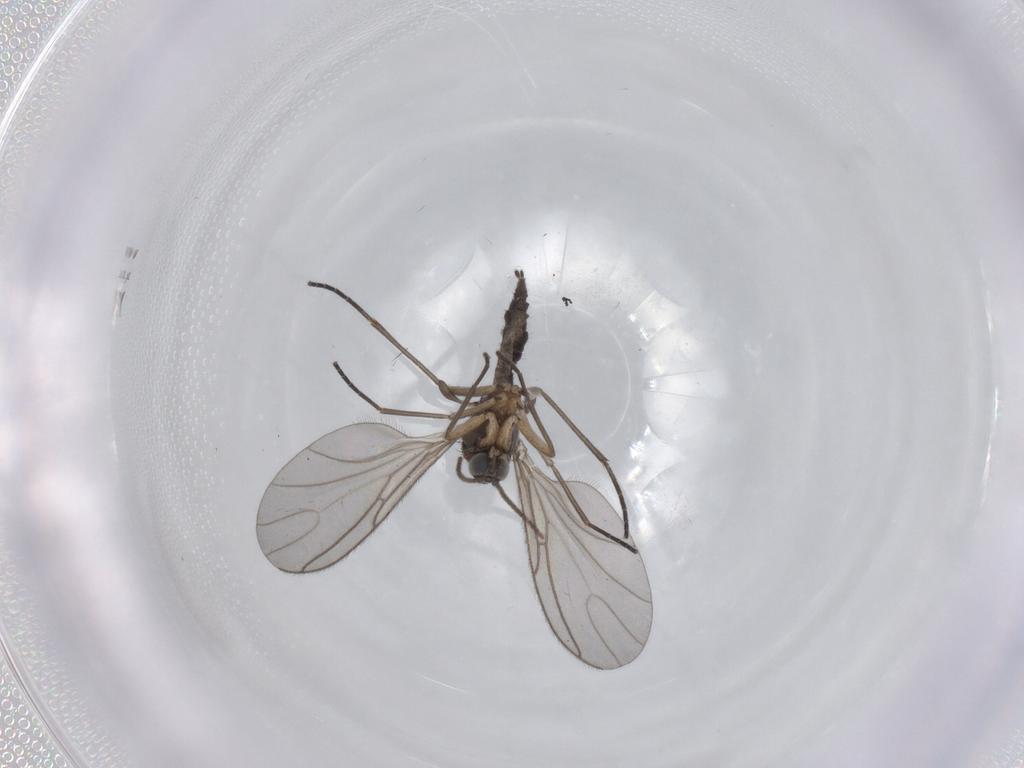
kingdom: Animalia
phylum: Arthropoda
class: Insecta
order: Diptera
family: Sciaridae
